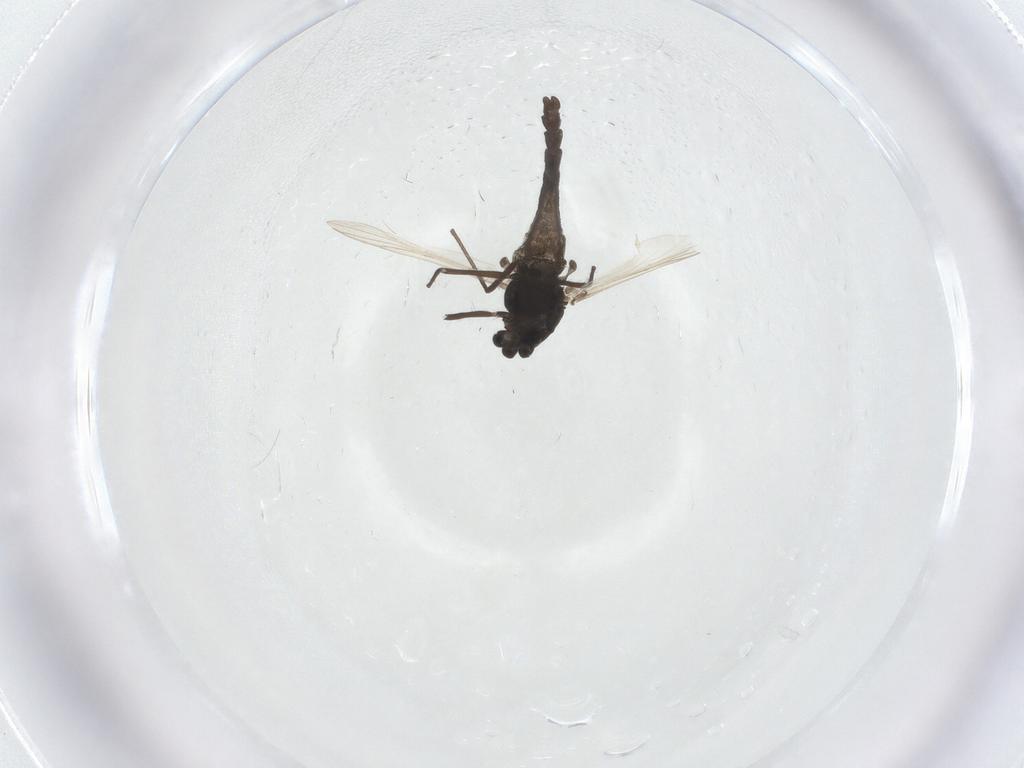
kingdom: Animalia
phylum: Arthropoda
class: Insecta
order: Diptera
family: Chironomidae
